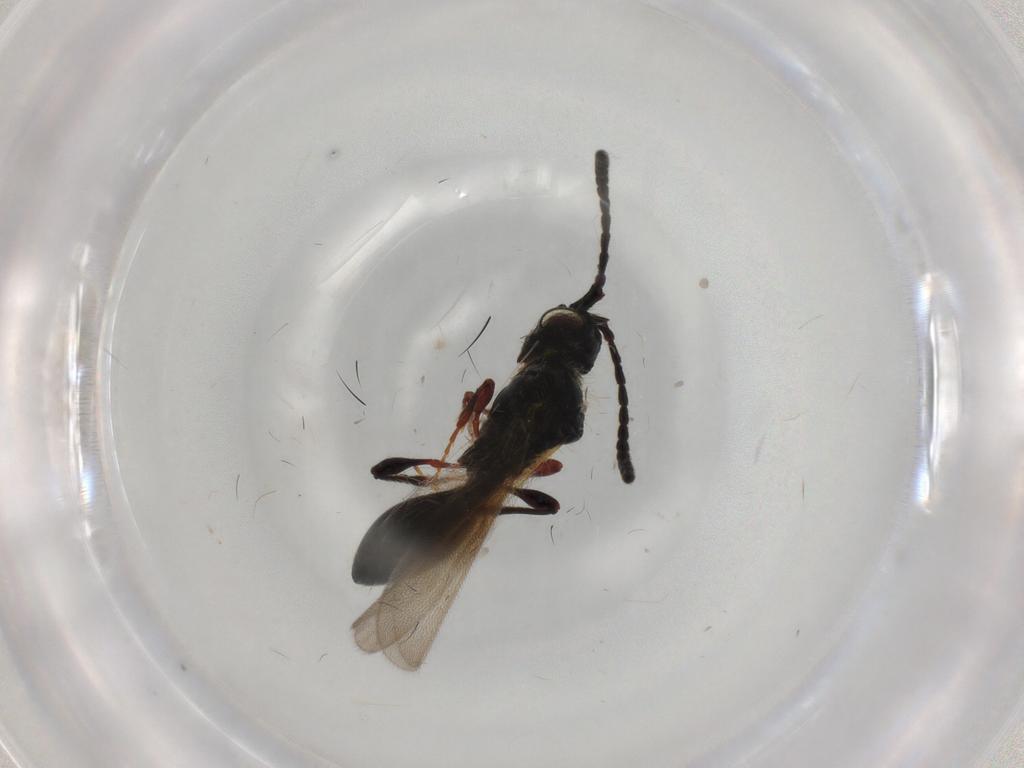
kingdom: Animalia
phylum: Arthropoda
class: Insecta
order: Hymenoptera
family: Diapriidae
